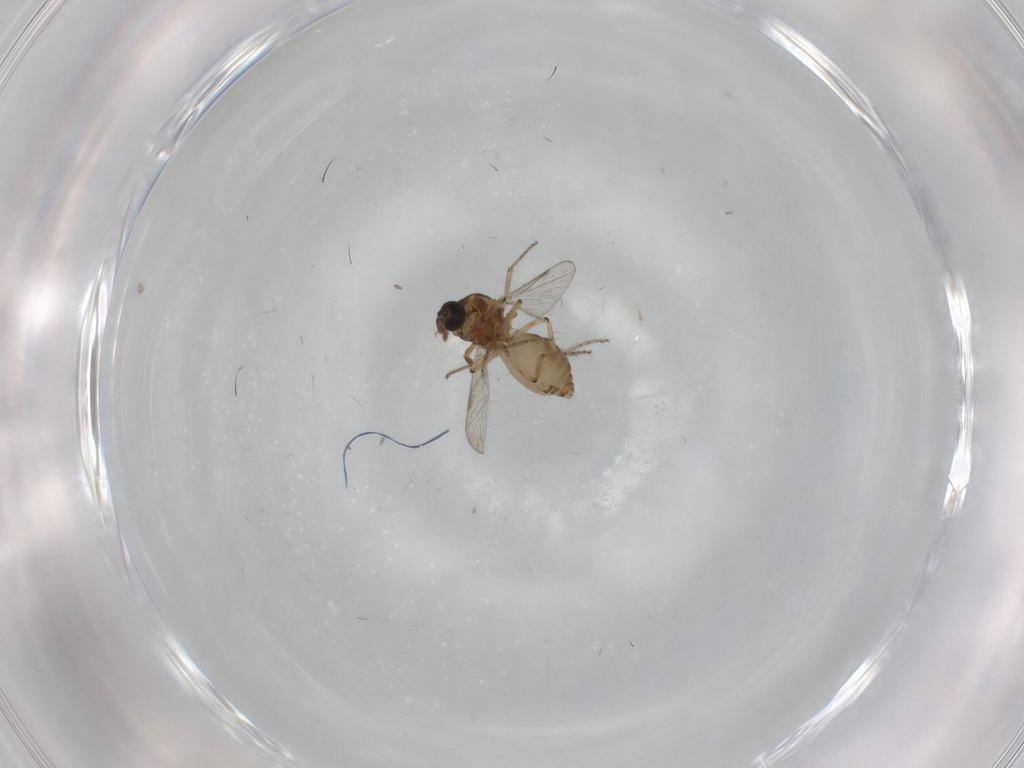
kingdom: Animalia
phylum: Arthropoda
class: Insecta
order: Diptera
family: Ceratopogonidae
